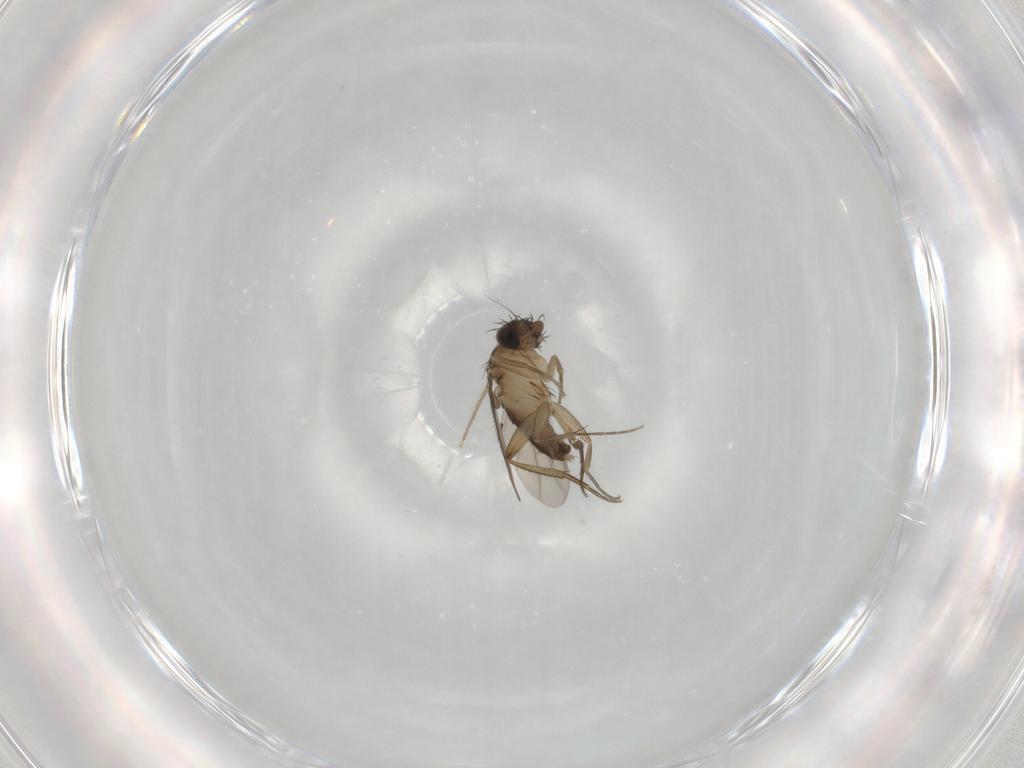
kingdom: Animalia
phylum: Arthropoda
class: Insecta
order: Diptera
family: Phoridae
